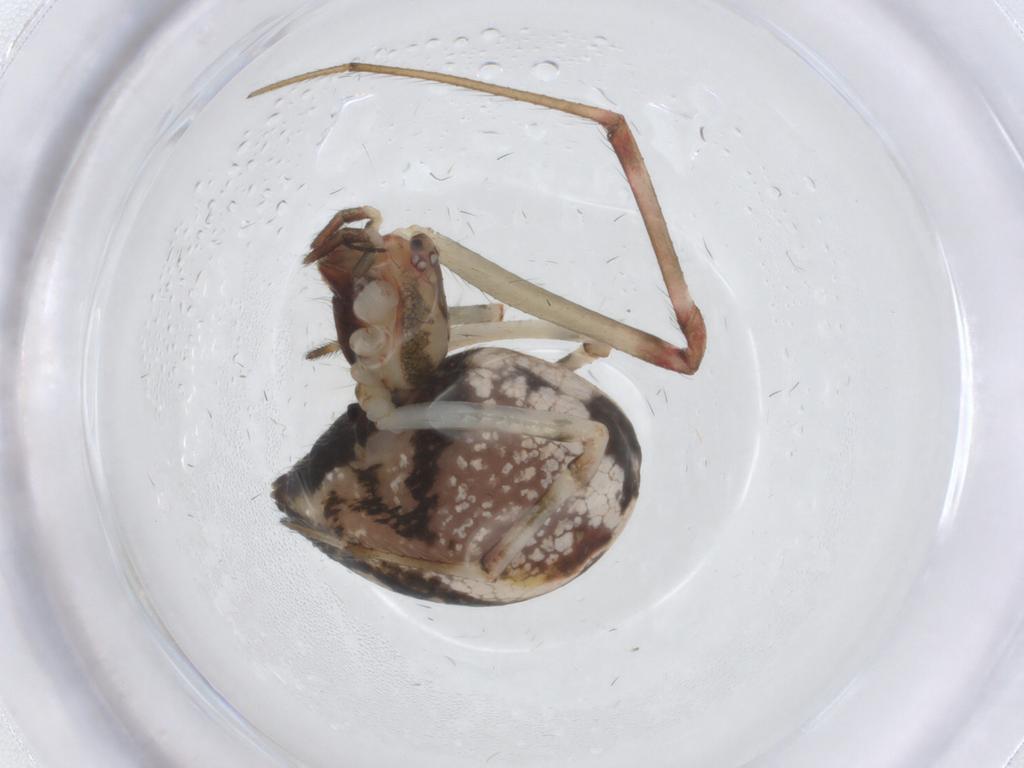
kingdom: Animalia
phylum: Arthropoda
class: Arachnida
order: Araneae
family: Theridiidae
